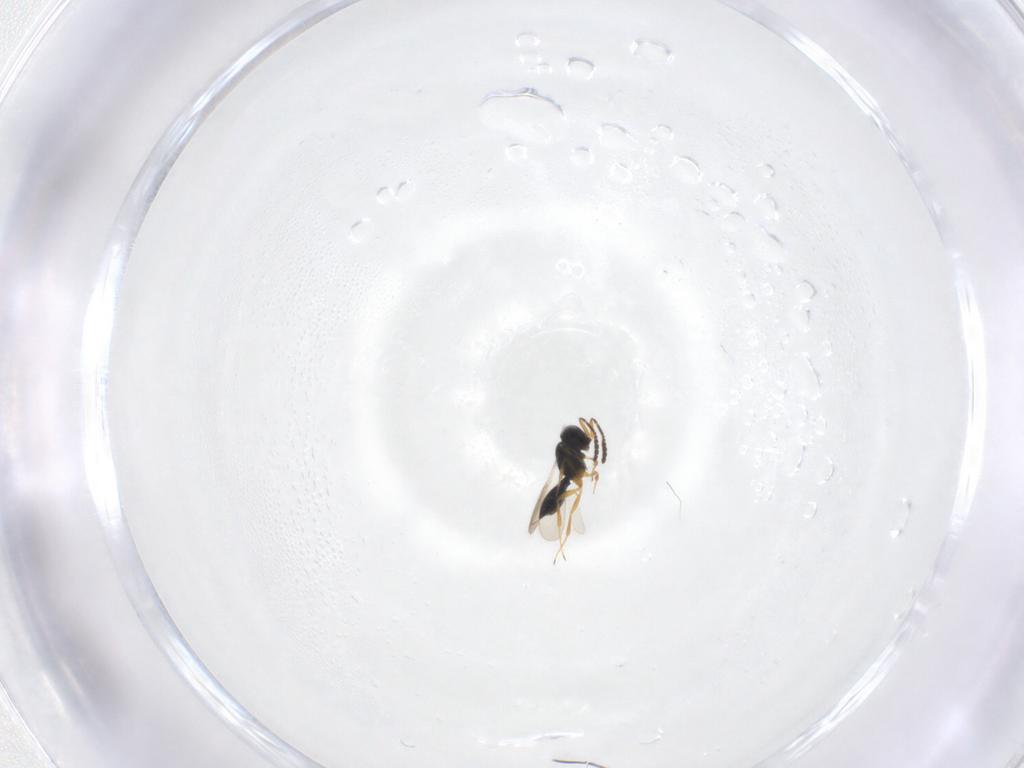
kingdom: Animalia
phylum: Arthropoda
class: Insecta
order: Hymenoptera
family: Scelionidae
